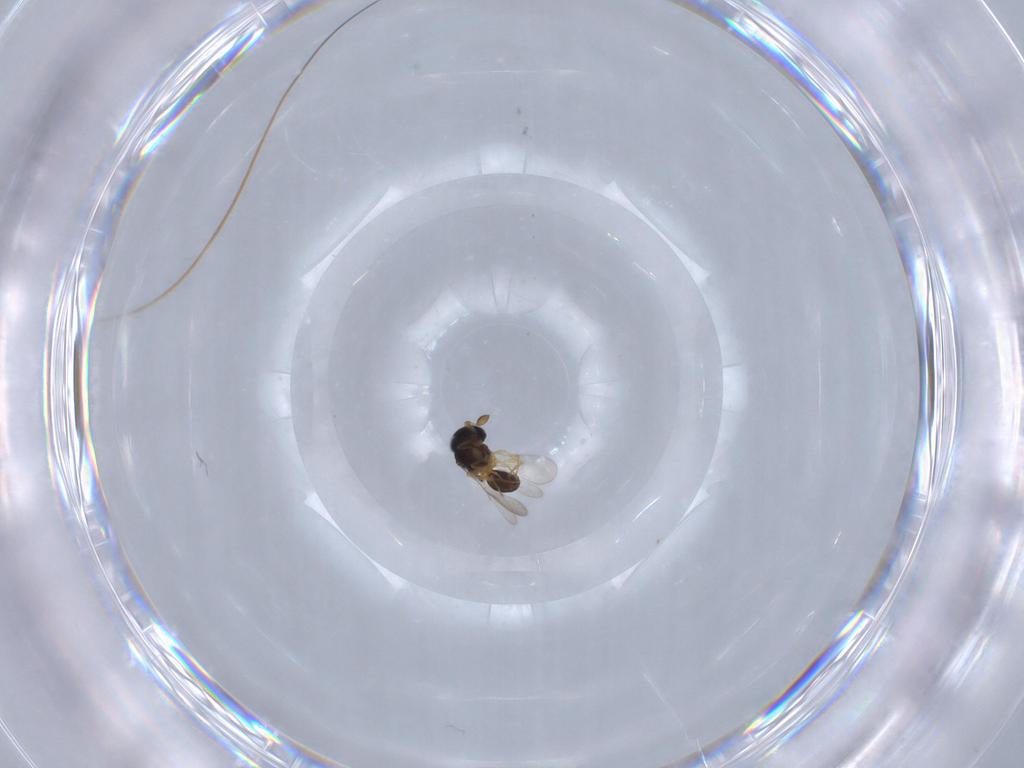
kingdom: Animalia
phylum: Arthropoda
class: Insecta
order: Hymenoptera
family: Scelionidae
